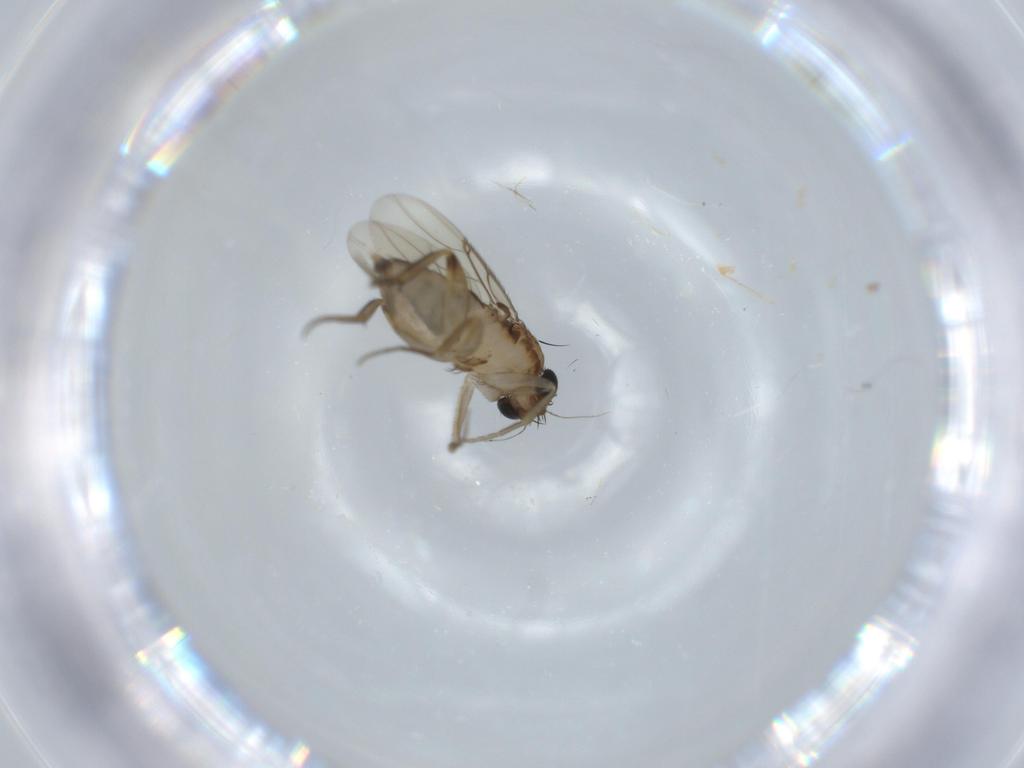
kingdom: Animalia
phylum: Arthropoda
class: Insecta
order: Diptera
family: Phoridae
